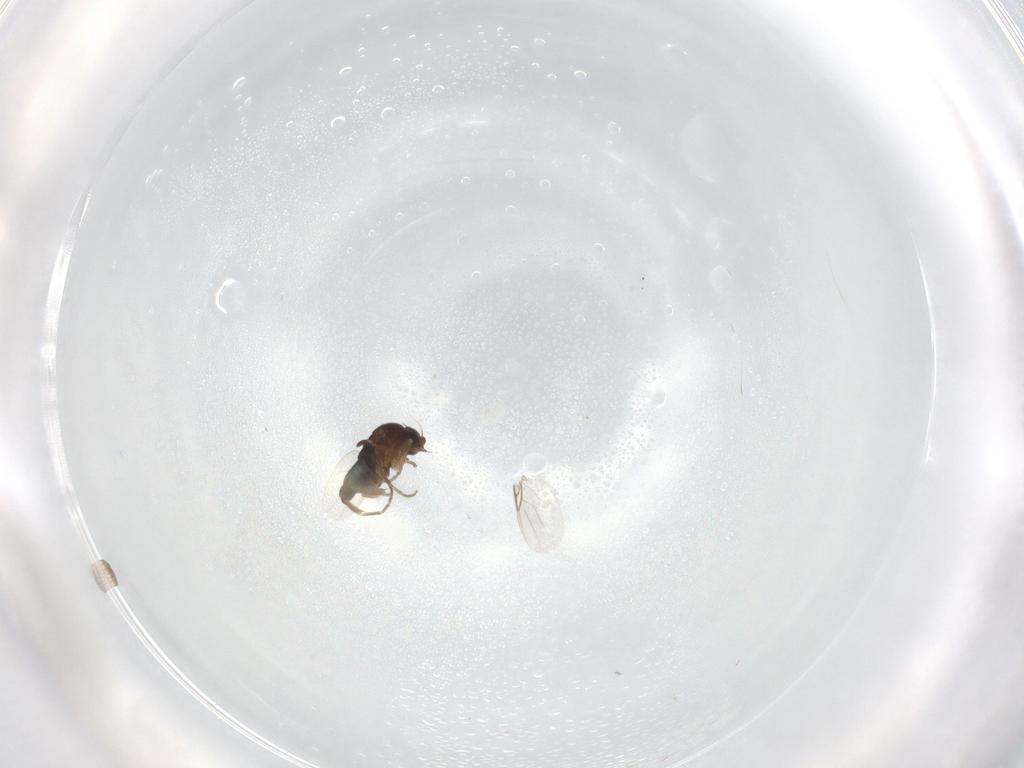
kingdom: Animalia
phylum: Arthropoda
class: Insecta
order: Diptera
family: Phoridae
